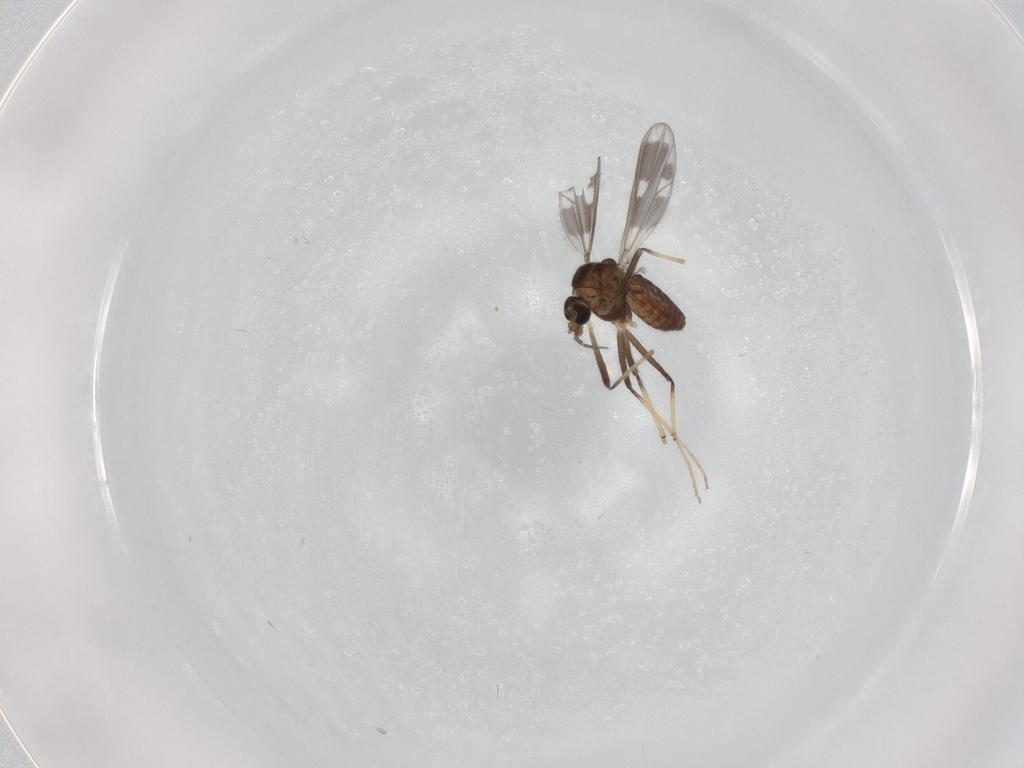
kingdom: Animalia
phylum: Arthropoda
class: Insecta
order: Diptera
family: Chironomidae
